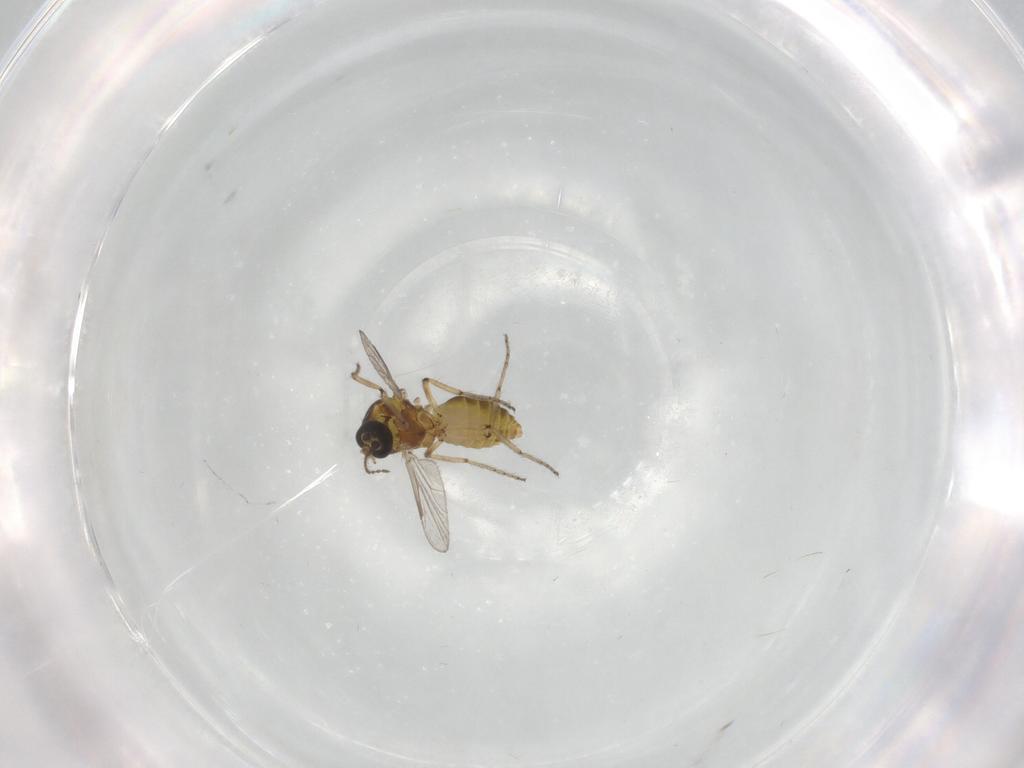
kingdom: Animalia
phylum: Arthropoda
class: Insecta
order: Diptera
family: Ceratopogonidae
